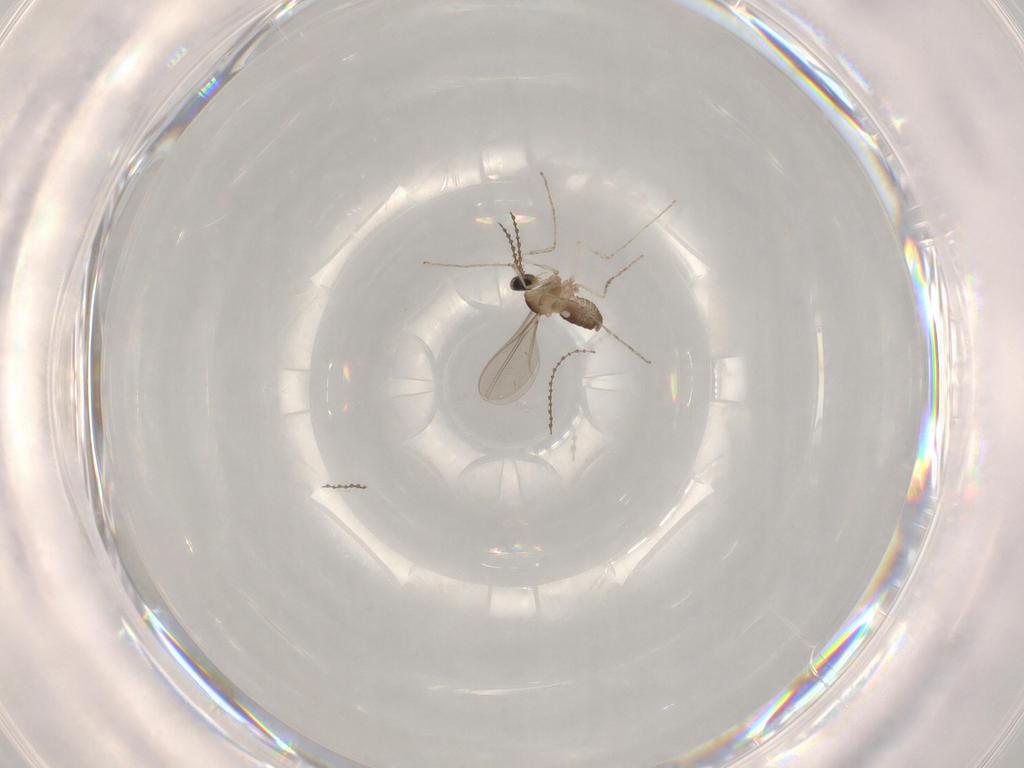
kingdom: Animalia
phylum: Arthropoda
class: Insecta
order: Diptera
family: Cecidomyiidae
